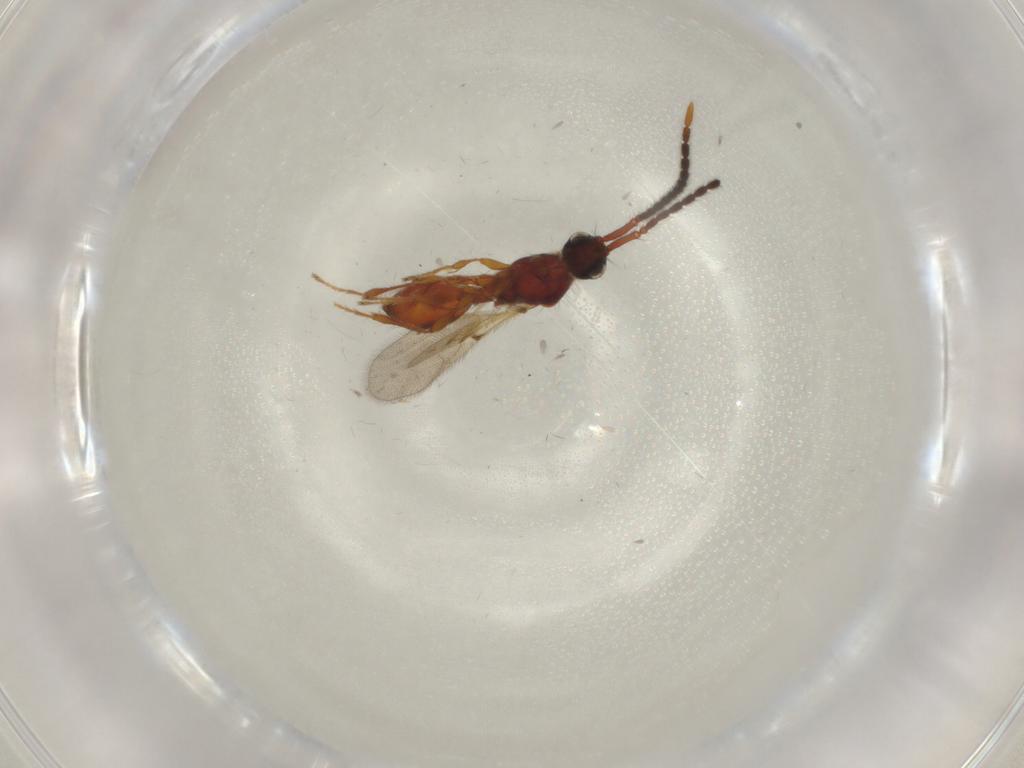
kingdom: Animalia
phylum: Arthropoda
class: Insecta
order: Hymenoptera
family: Diapriidae
